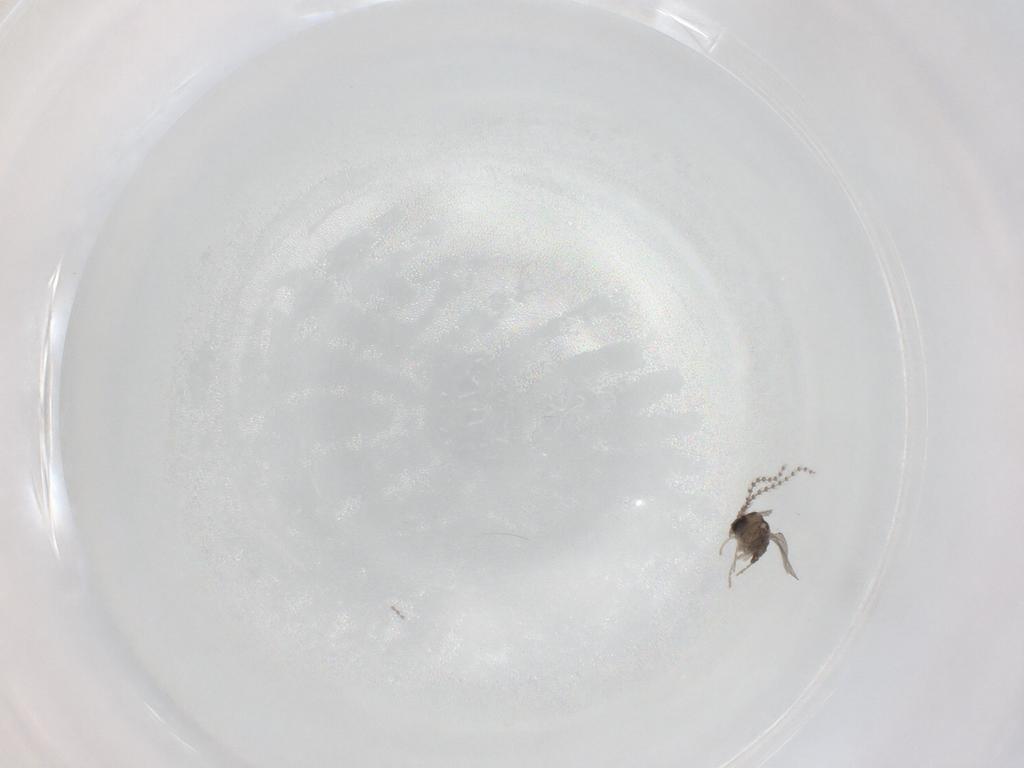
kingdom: Animalia
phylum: Arthropoda
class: Insecta
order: Diptera
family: Cecidomyiidae
